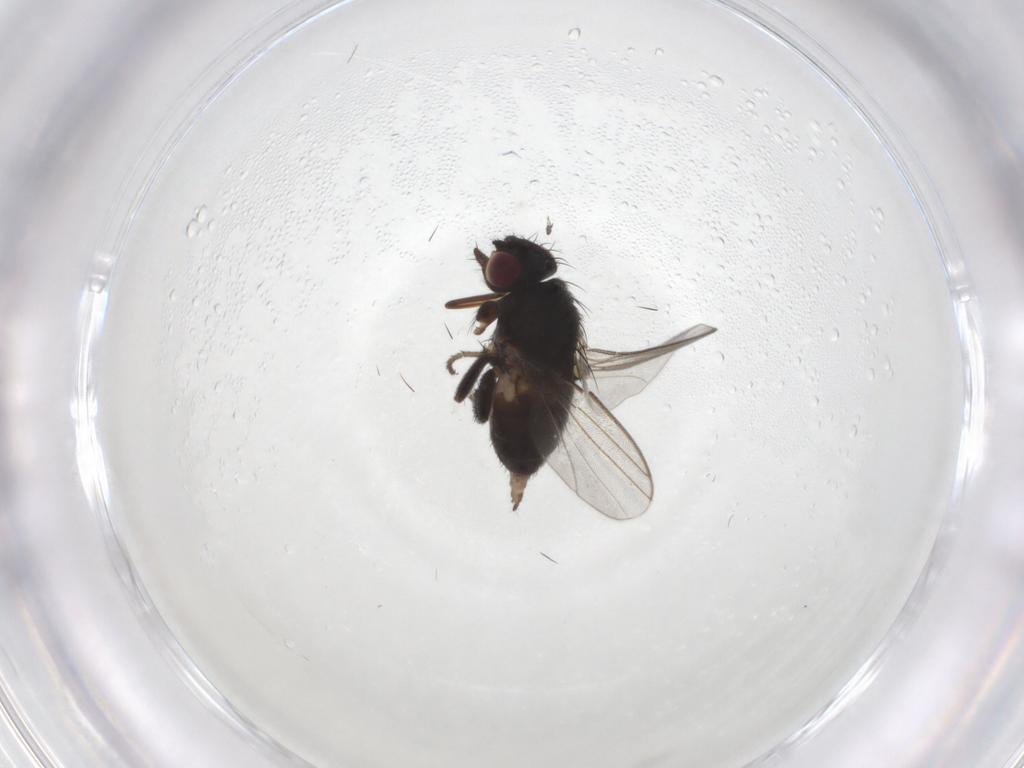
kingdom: Animalia
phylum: Arthropoda
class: Insecta
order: Diptera
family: Milichiidae
